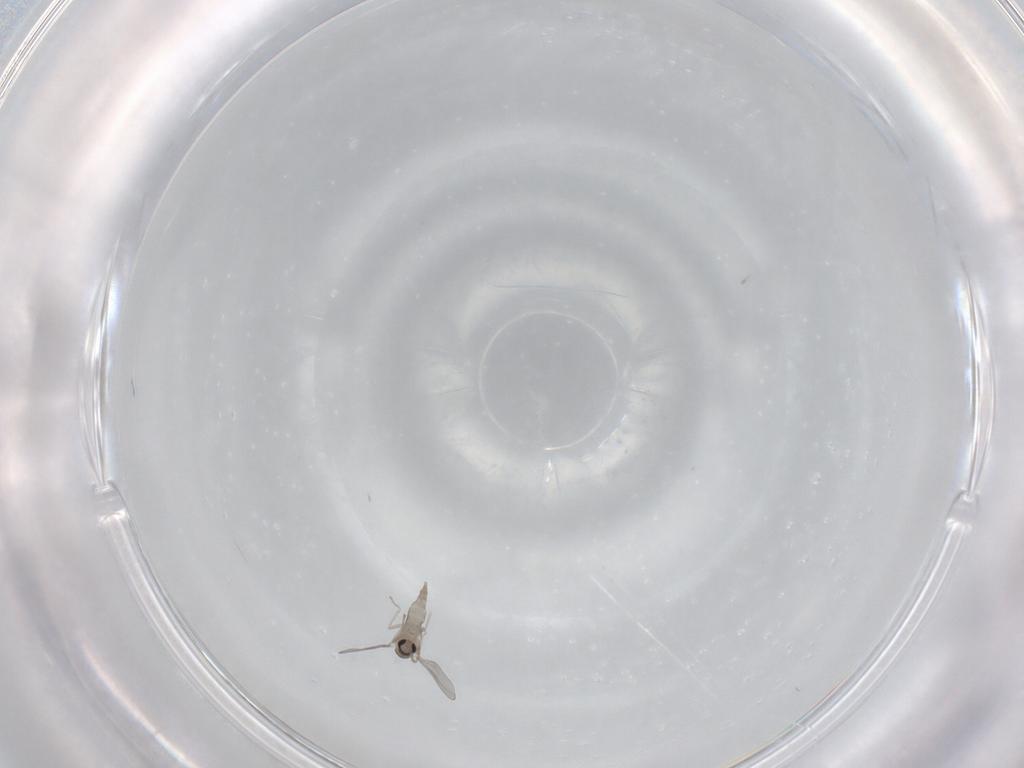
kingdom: Animalia
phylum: Arthropoda
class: Insecta
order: Diptera
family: Cecidomyiidae
